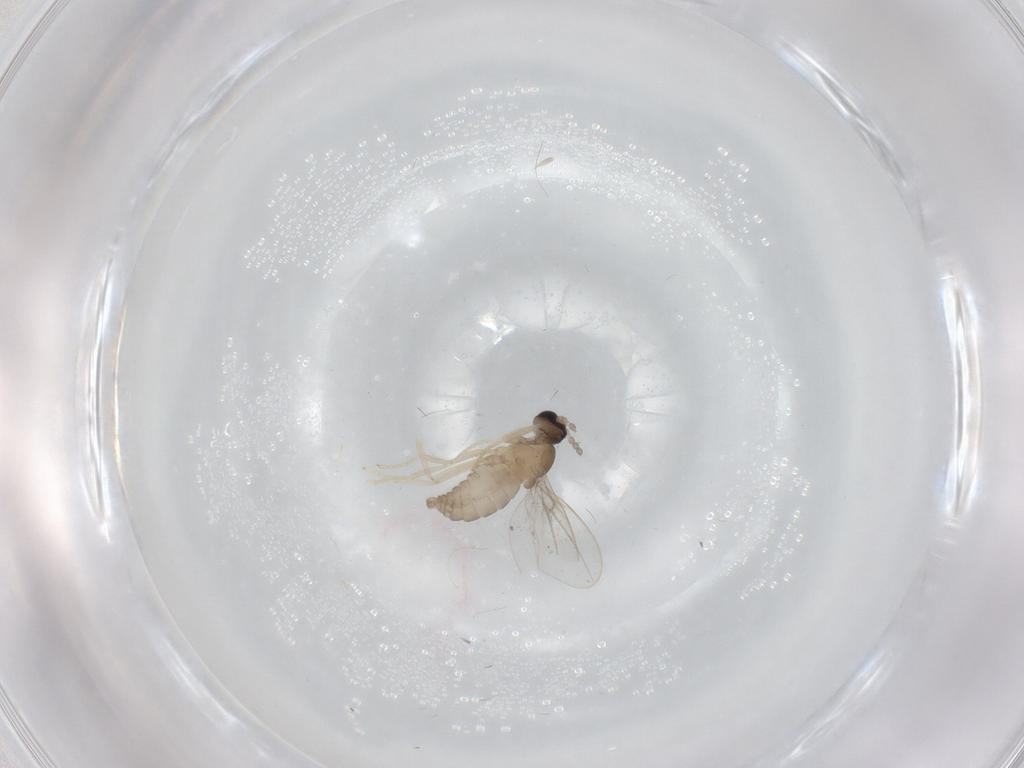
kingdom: Animalia
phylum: Arthropoda
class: Insecta
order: Diptera
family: Cecidomyiidae
